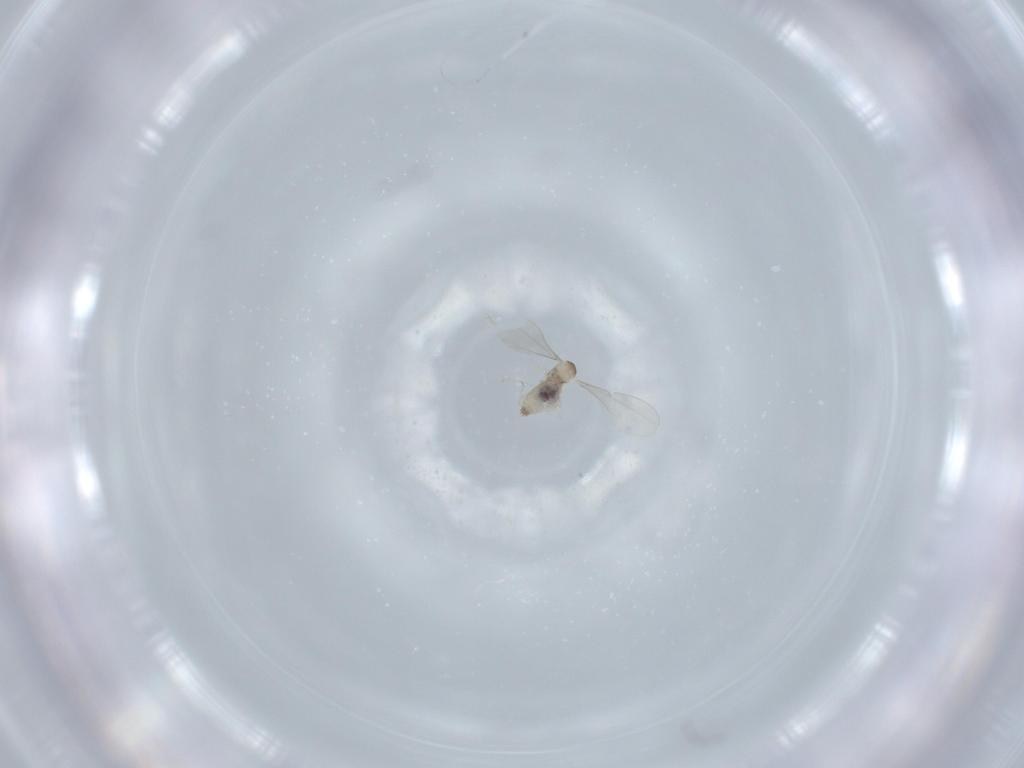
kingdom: Animalia
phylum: Arthropoda
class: Insecta
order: Diptera
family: Cecidomyiidae
